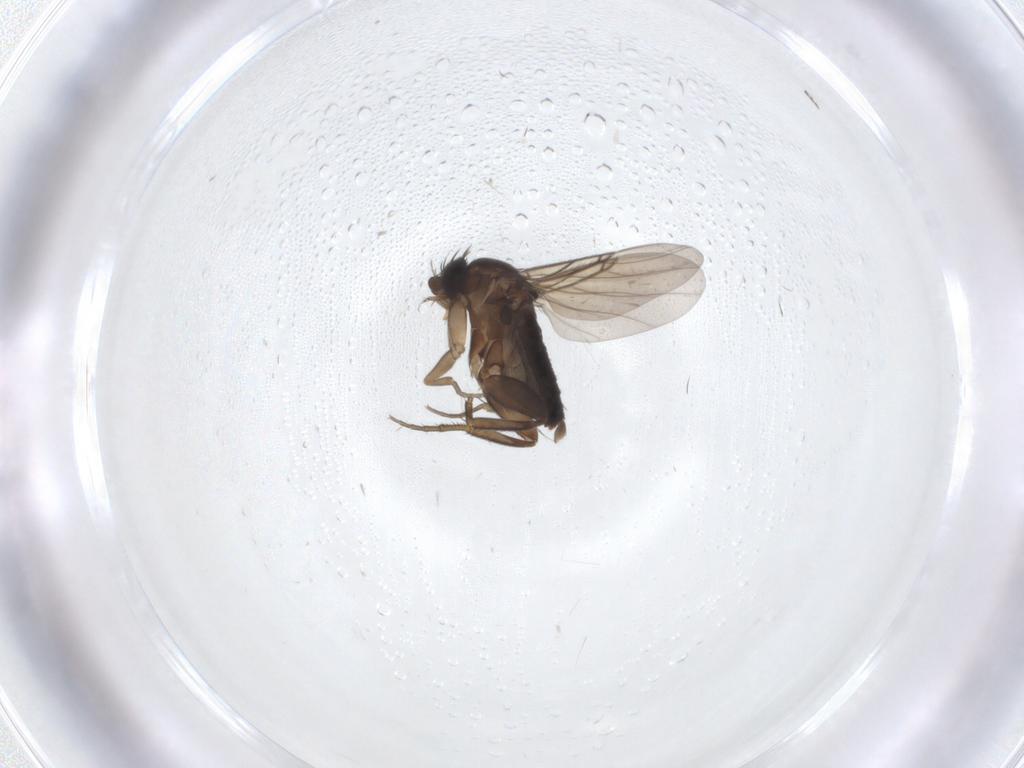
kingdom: Animalia
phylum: Arthropoda
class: Insecta
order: Diptera
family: Phoridae
